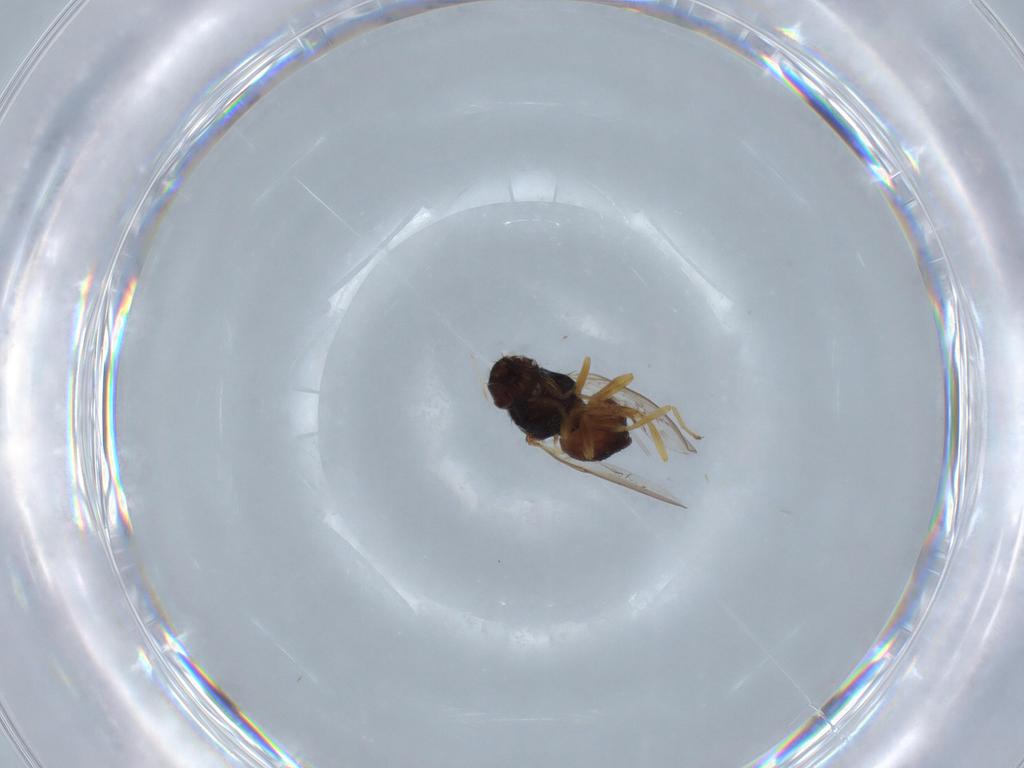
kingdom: Animalia
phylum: Arthropoda
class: Insecta
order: Diptera
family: Chloropidae
